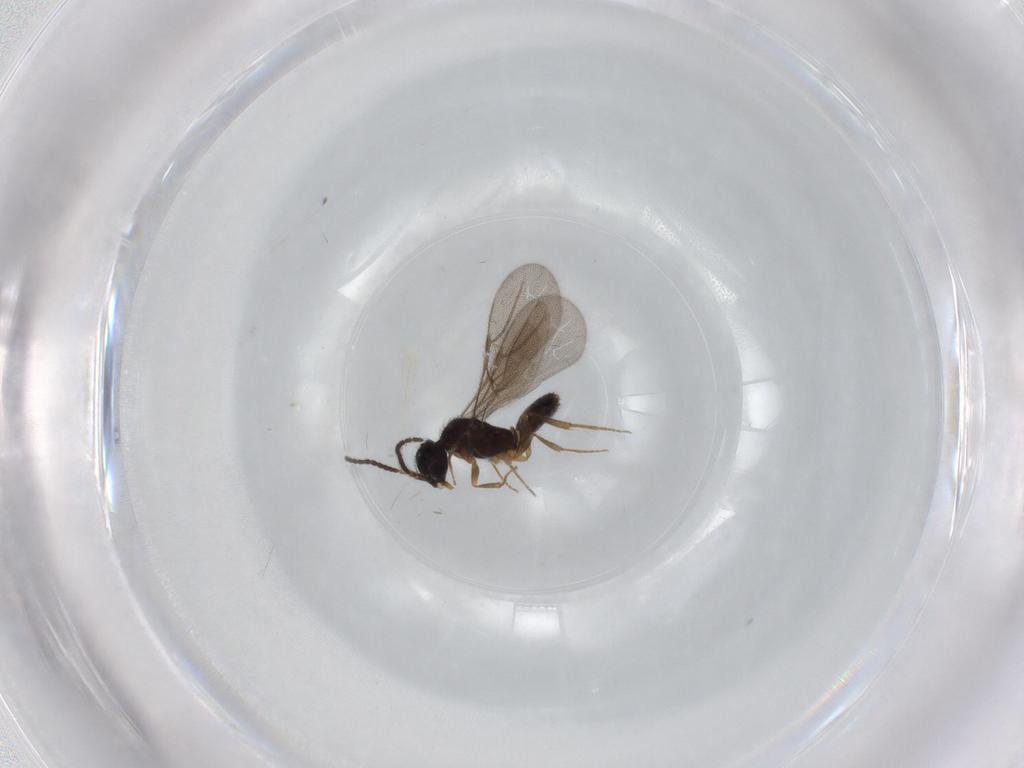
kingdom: Animalia
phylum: Arthropoda
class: Insecta
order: Hymenoptera
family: Bethylidae
